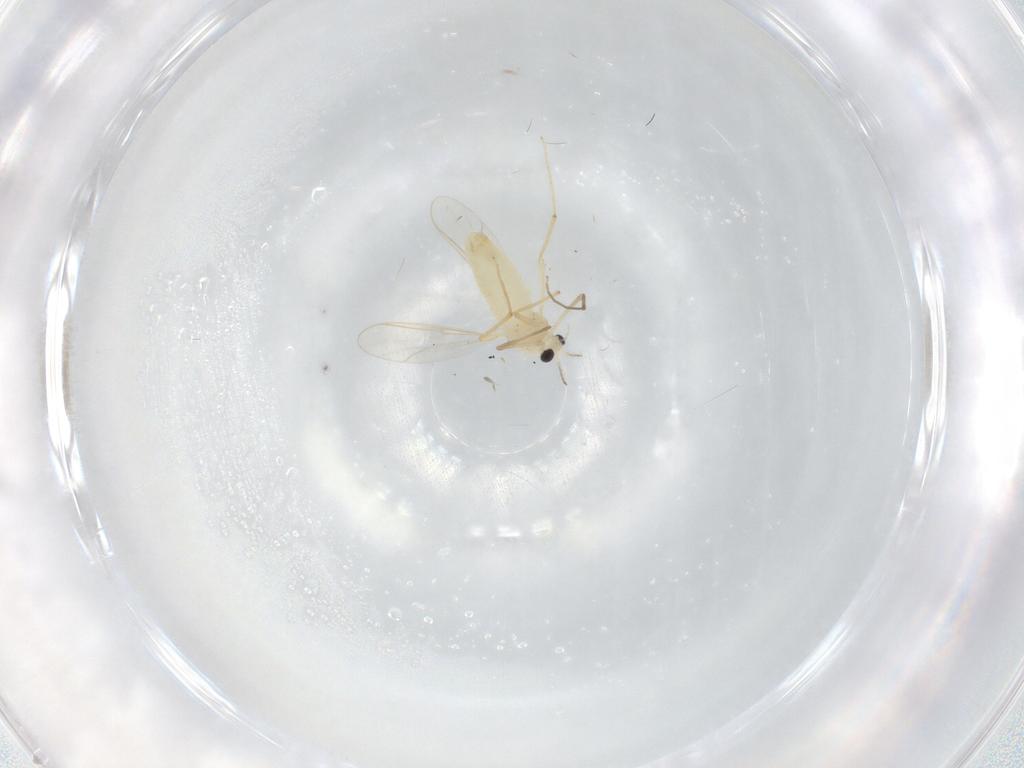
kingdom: Animalia
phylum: Arthropoda
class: Insecta
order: Diptera
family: Chironomidae
